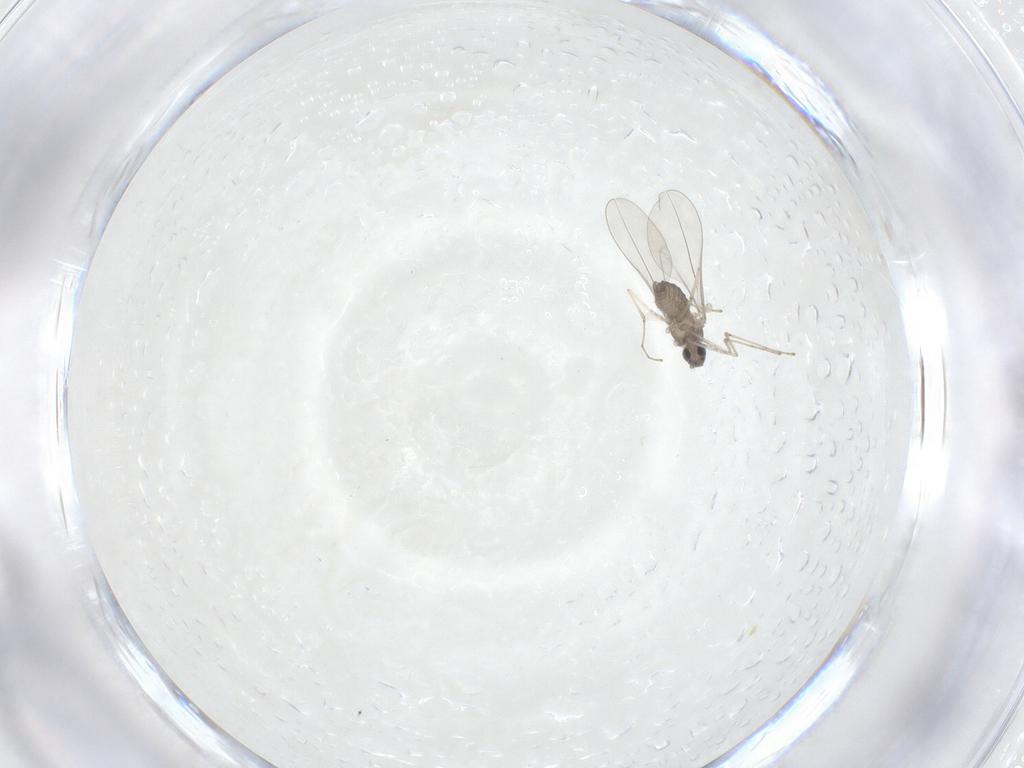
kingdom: Animalia
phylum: Arthropoda
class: Insecta
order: Diptera
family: Cecidomyiidae
